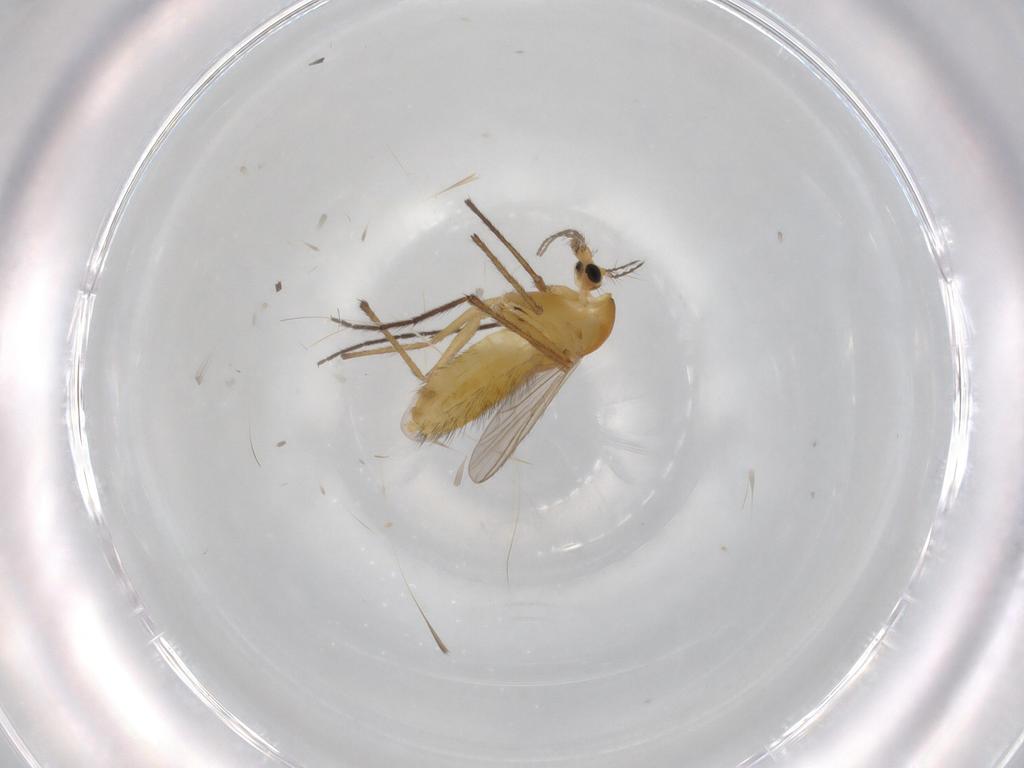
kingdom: Animalia
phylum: Arthropoda
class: Insecta
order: Diptera
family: Chironomidae
